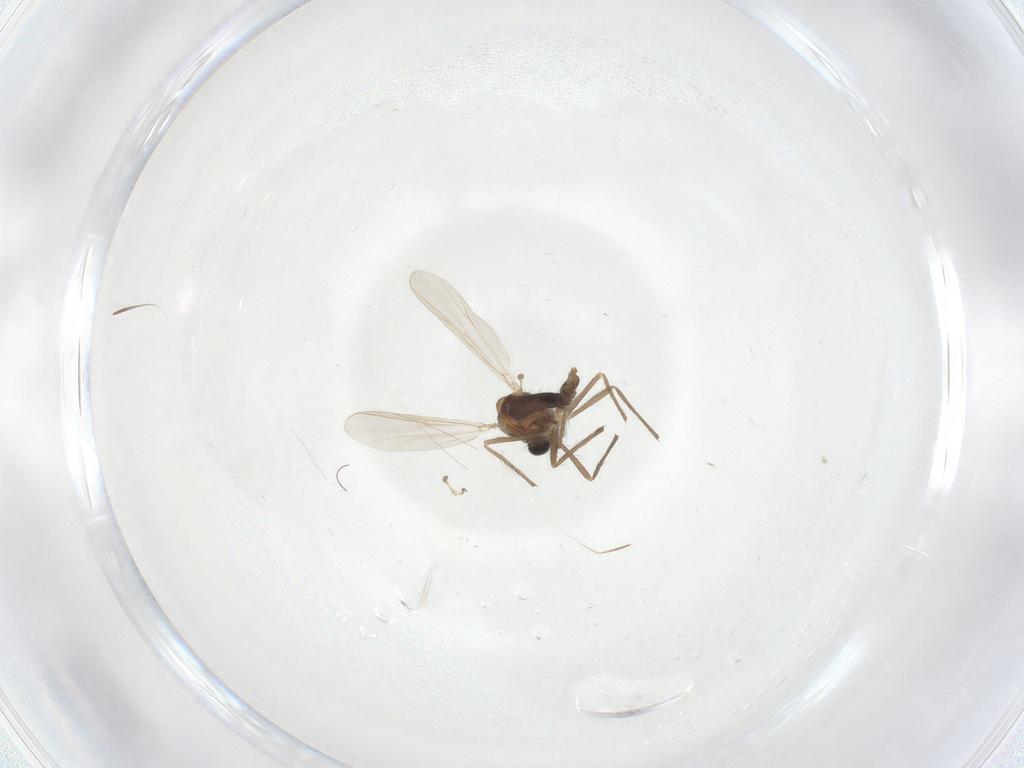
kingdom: Animalia
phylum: Arthropoda
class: Insecta
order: Diptera
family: Chironomidae
